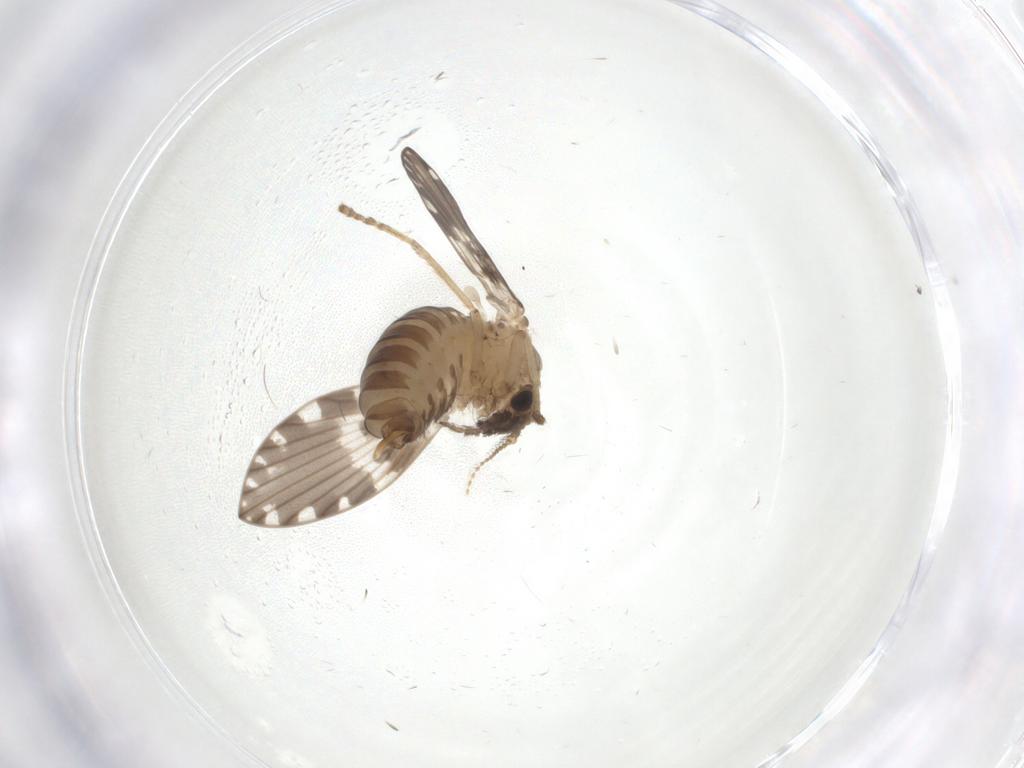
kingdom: Animalia
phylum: Arthropoda
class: Insecta
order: Diptera
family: Psychodidae
